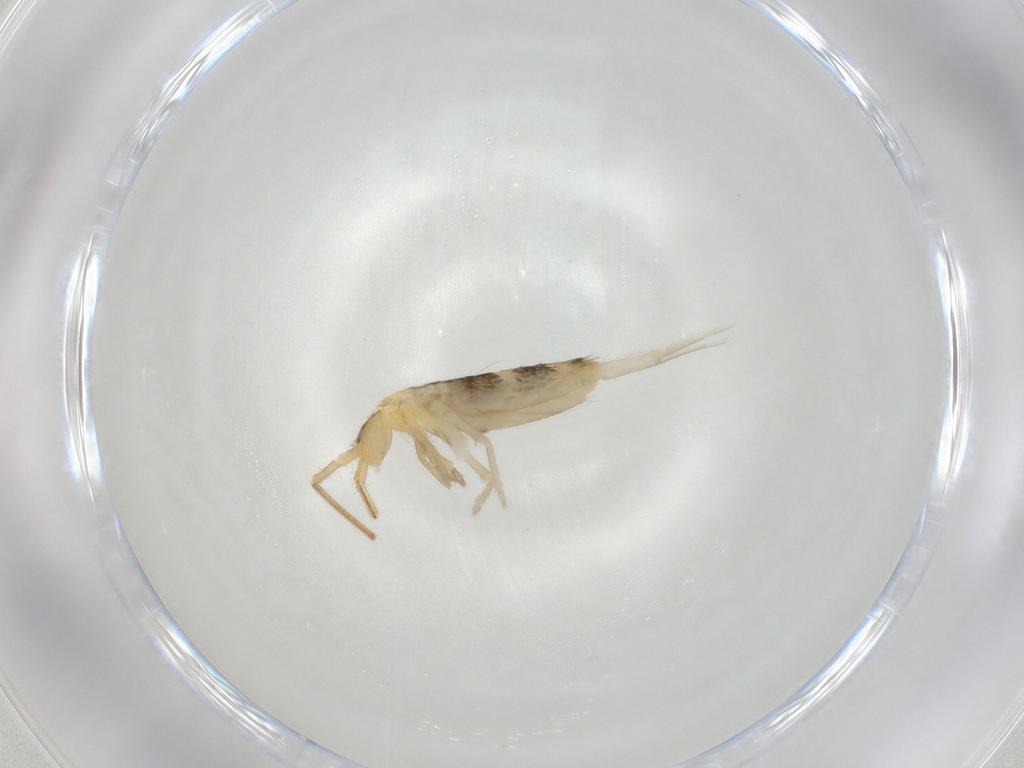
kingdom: Animalia
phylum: Arthropoda
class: Collembola
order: Entomobryomorpha
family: Entomobryidae
